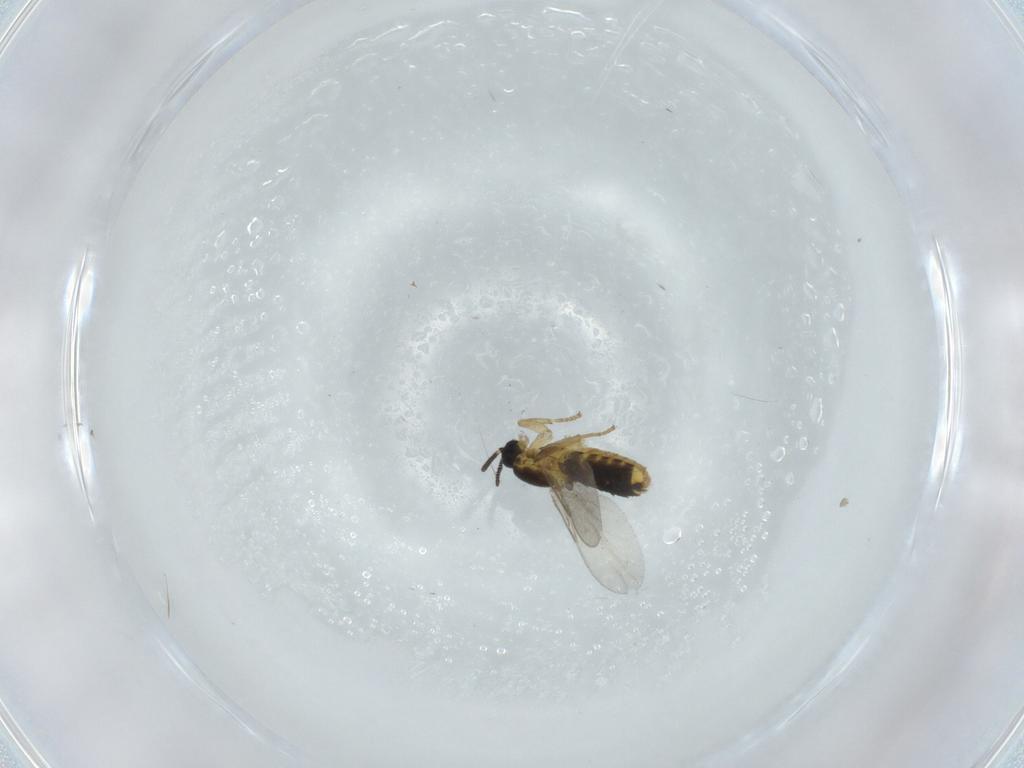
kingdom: Animalia
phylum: Arthropoda
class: Insecta
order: Diptera
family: Scatopsidae
